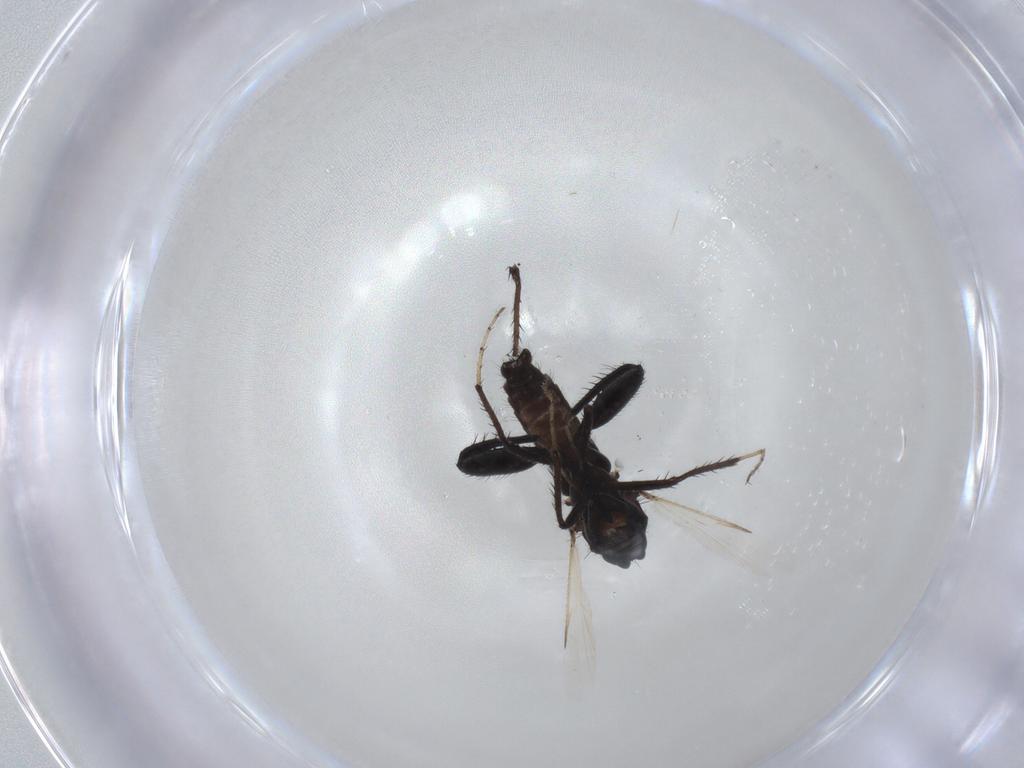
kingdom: Animalia
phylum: Arthropoda
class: Insecta
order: Diptera
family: Ceratopogonidae
